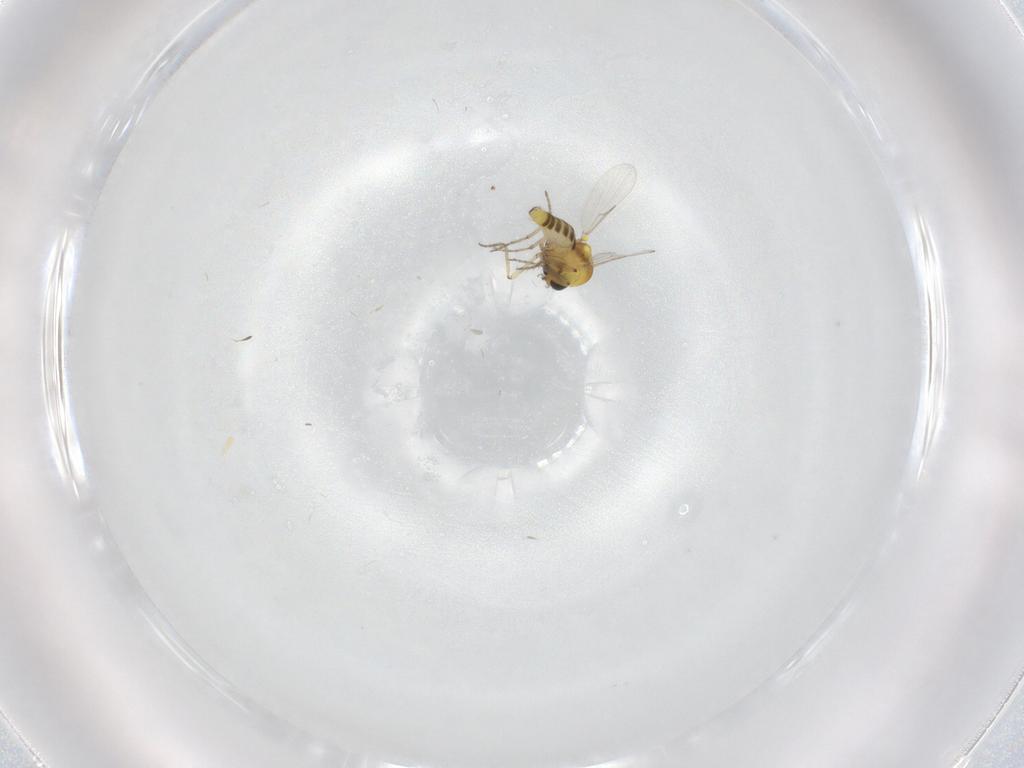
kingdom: Animalia
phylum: Arthropoda
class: Insecta
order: Diptera
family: Ceratopogonidae
